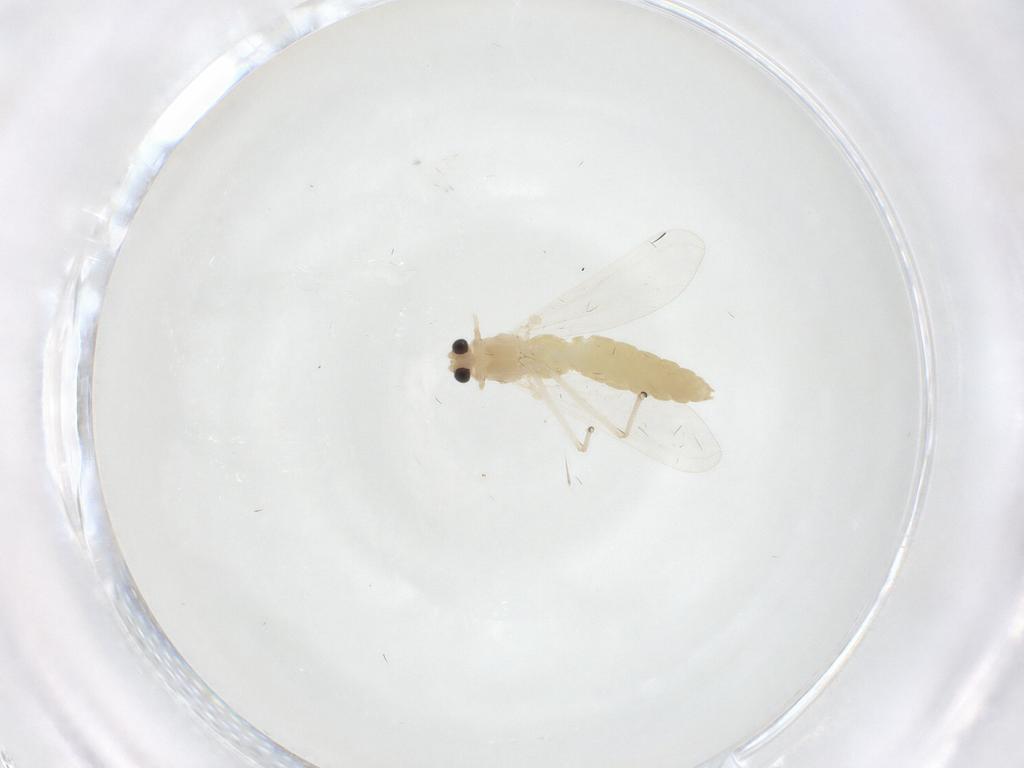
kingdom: Animalia
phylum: Arthropoda
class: Insecta
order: Diptera
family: Chironomidae
